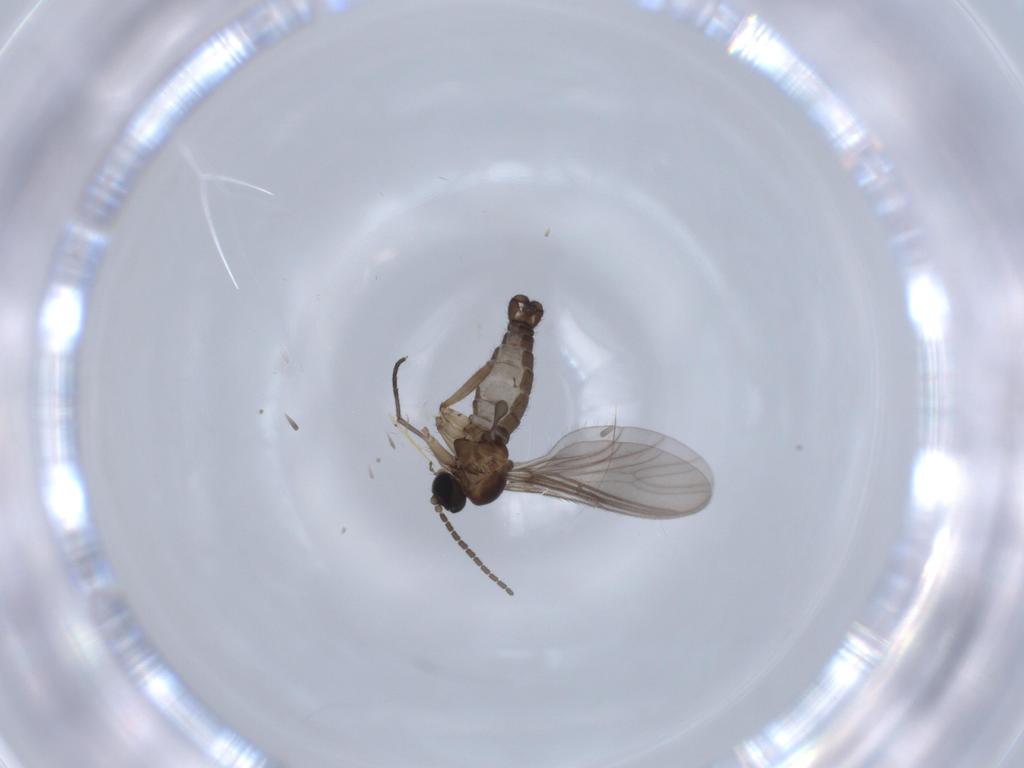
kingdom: Animalia
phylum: Arthropoda
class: Insecta
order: Diptera
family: Sciaridae
